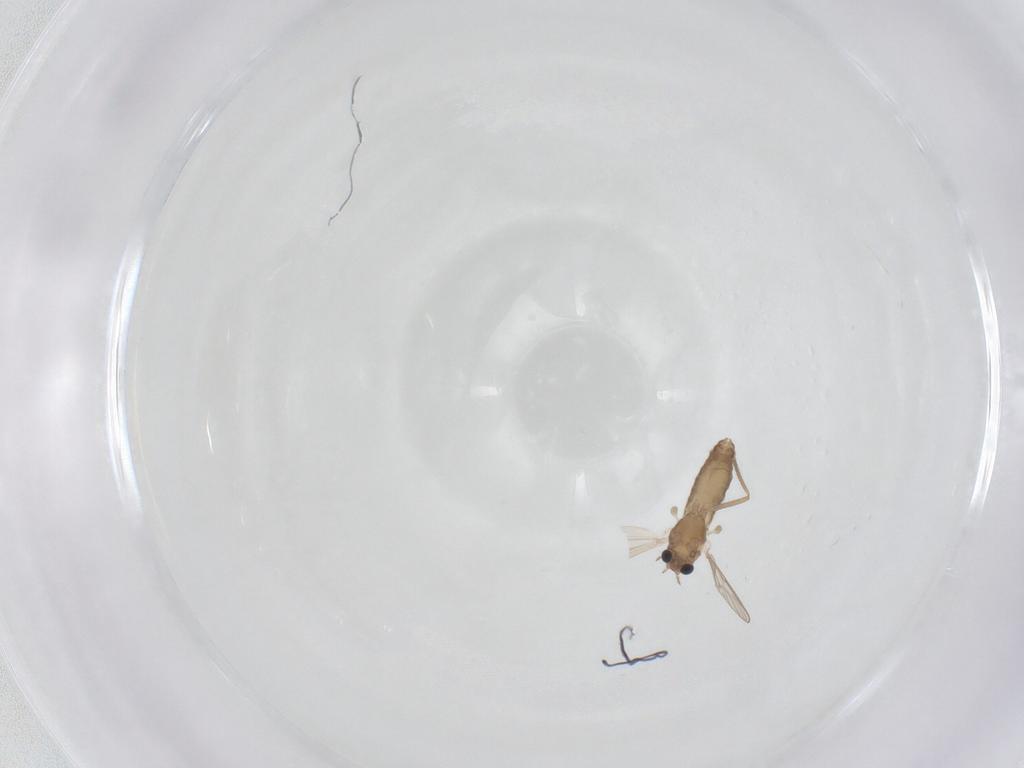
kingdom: Animalia
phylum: Arthropoda
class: Insecta
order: Diptera
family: Chironomidae
